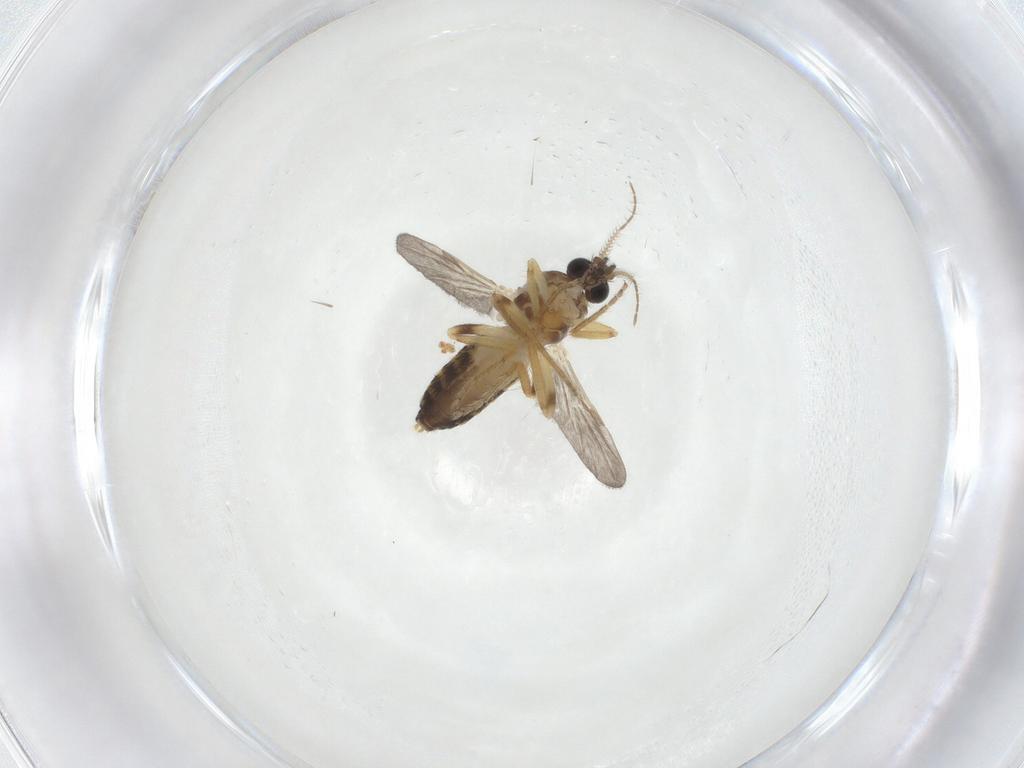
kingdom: Animalia
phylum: Arthropoda
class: Insecta
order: Diptera
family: Ceratopogonidae
